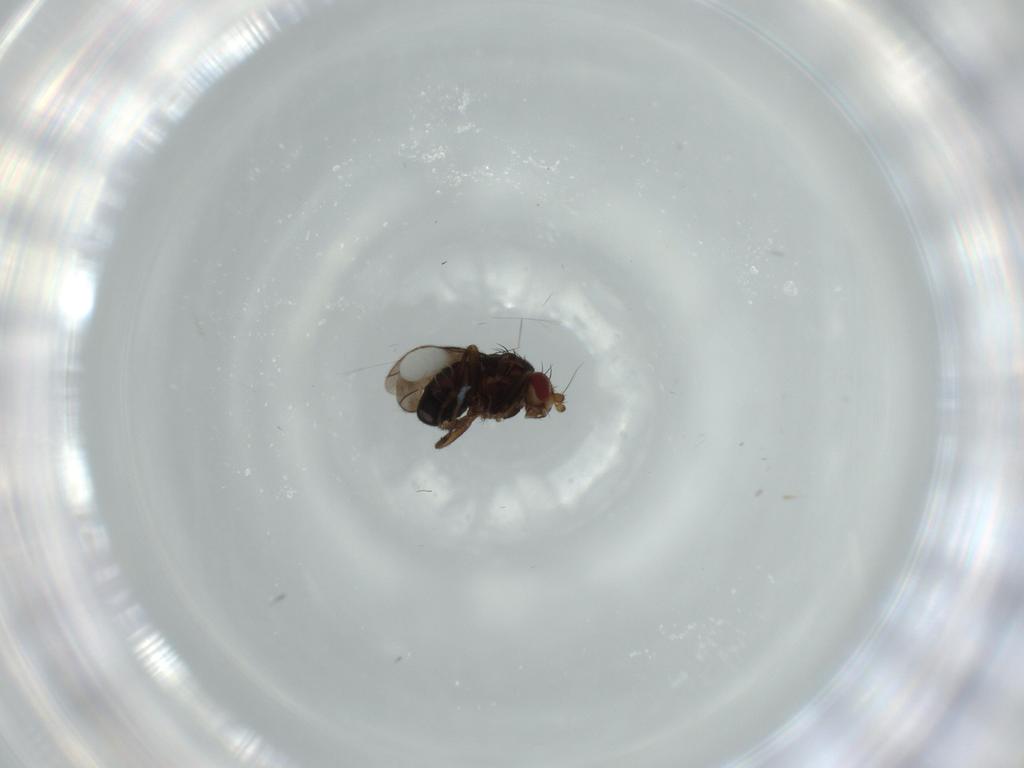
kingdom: Animalia
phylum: Arthropoda
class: Insecta
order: Diptera
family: Sphaeroceridae
